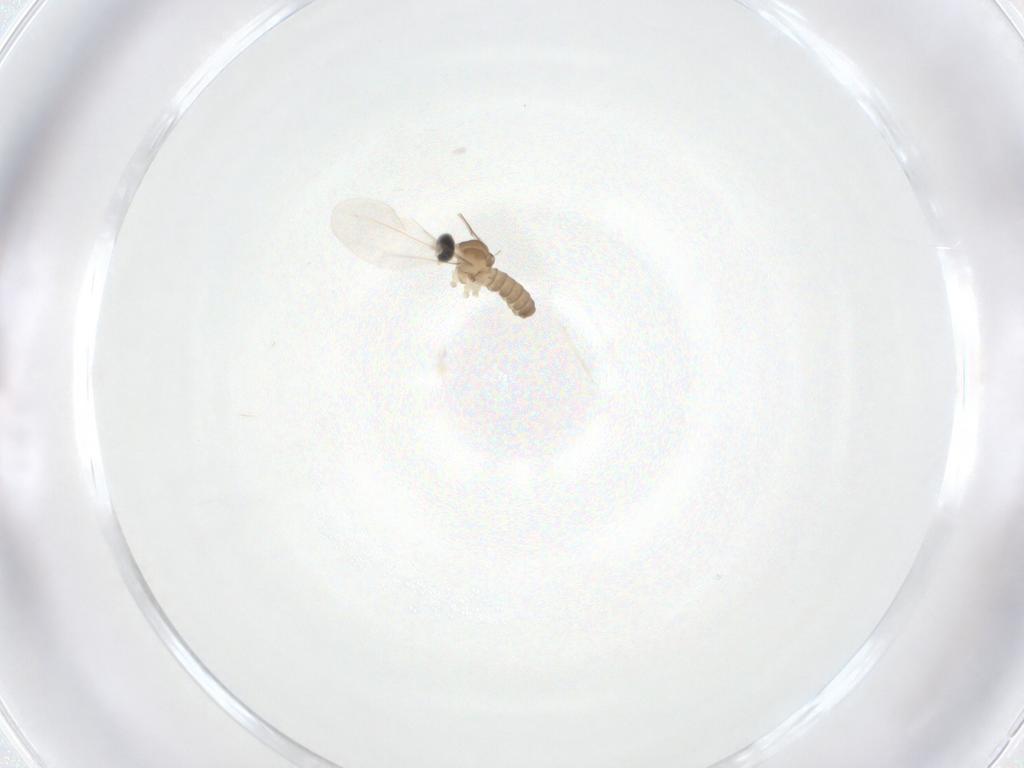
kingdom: Animalia
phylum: Arthropoda
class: Insecta
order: Diptera
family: Cecidomyiidae
